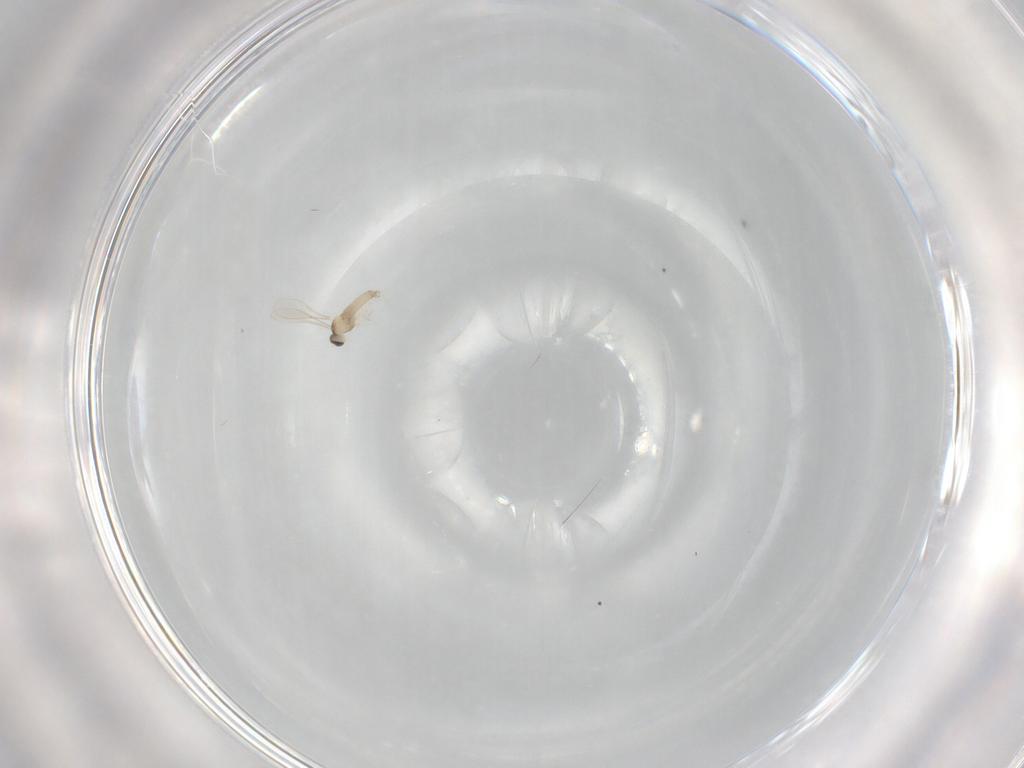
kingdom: Animalia
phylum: Arthropoda
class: Insecta
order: Diptera
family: Cecidomyiidae
